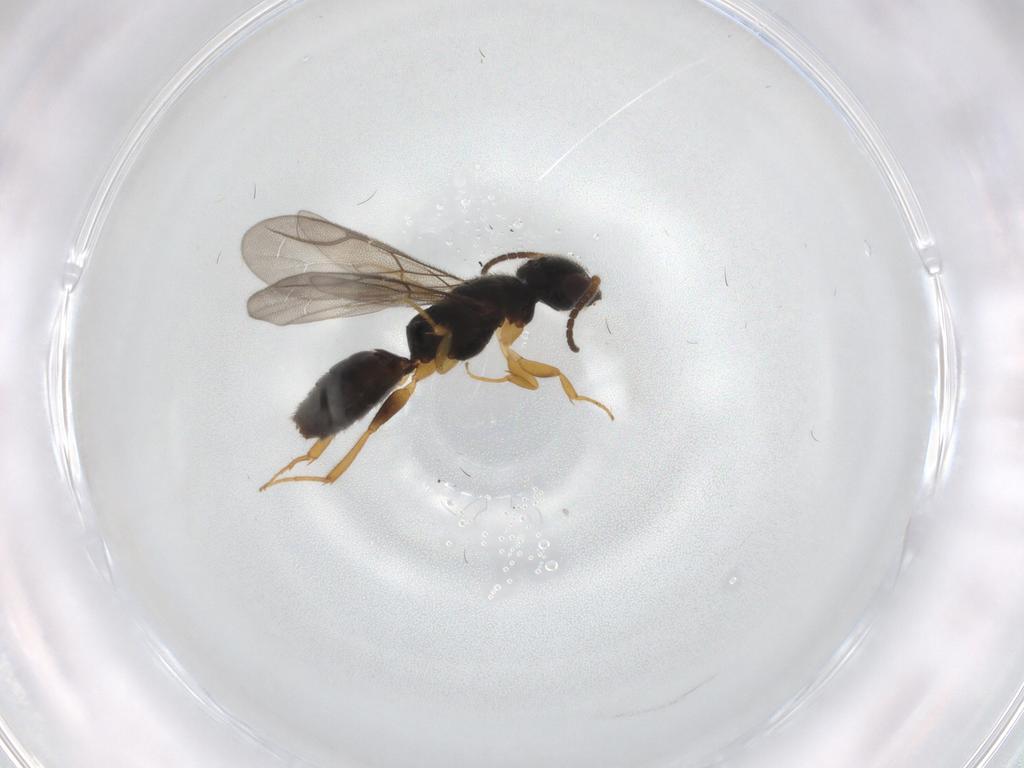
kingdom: Animalia
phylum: Arthropoda
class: Insecta
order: Hymenoptera
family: Bethylidae
